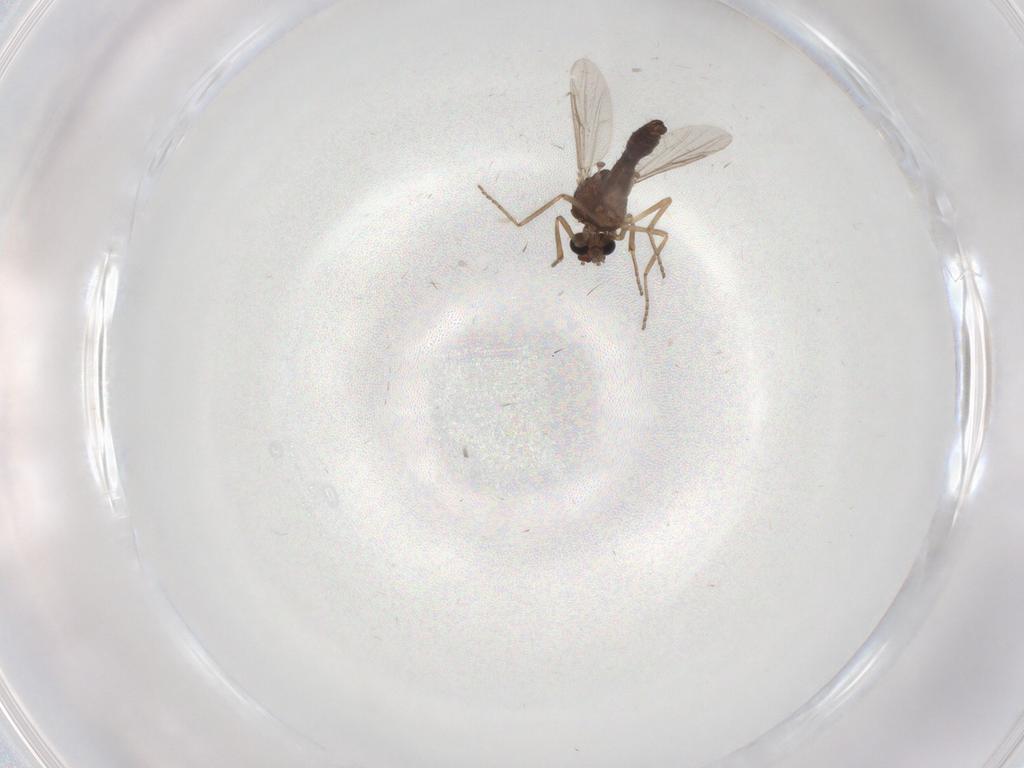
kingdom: Animalia
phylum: Arthropoda
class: Insecta
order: Diptera
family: Ceratopogonidae
